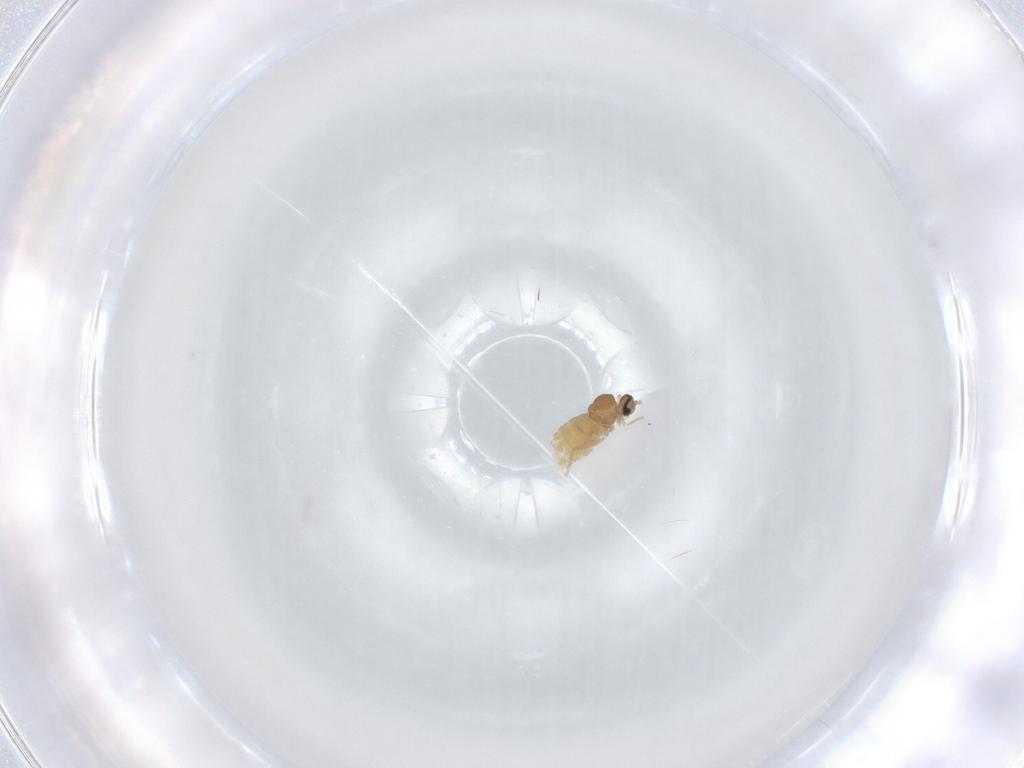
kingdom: Animalia
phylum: Arthropoda
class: Insecta
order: Diptera
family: Cecidomyiidae
